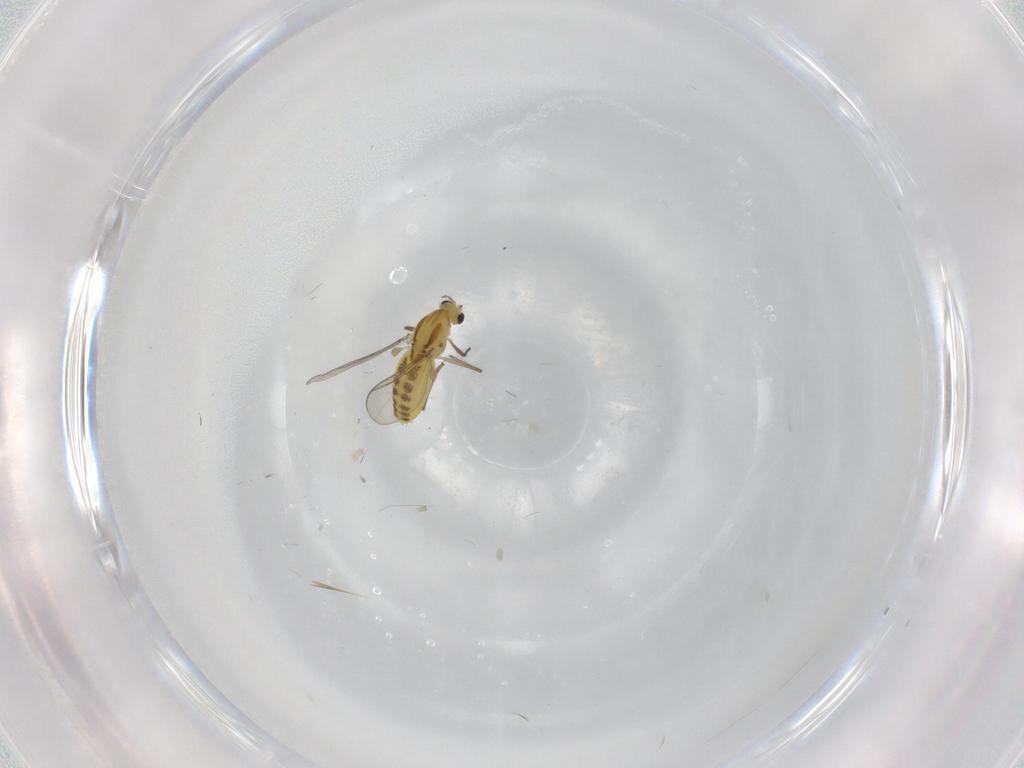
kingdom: Animalia
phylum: Arthropoda
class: Insecta
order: Diptera
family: Chironomidae
